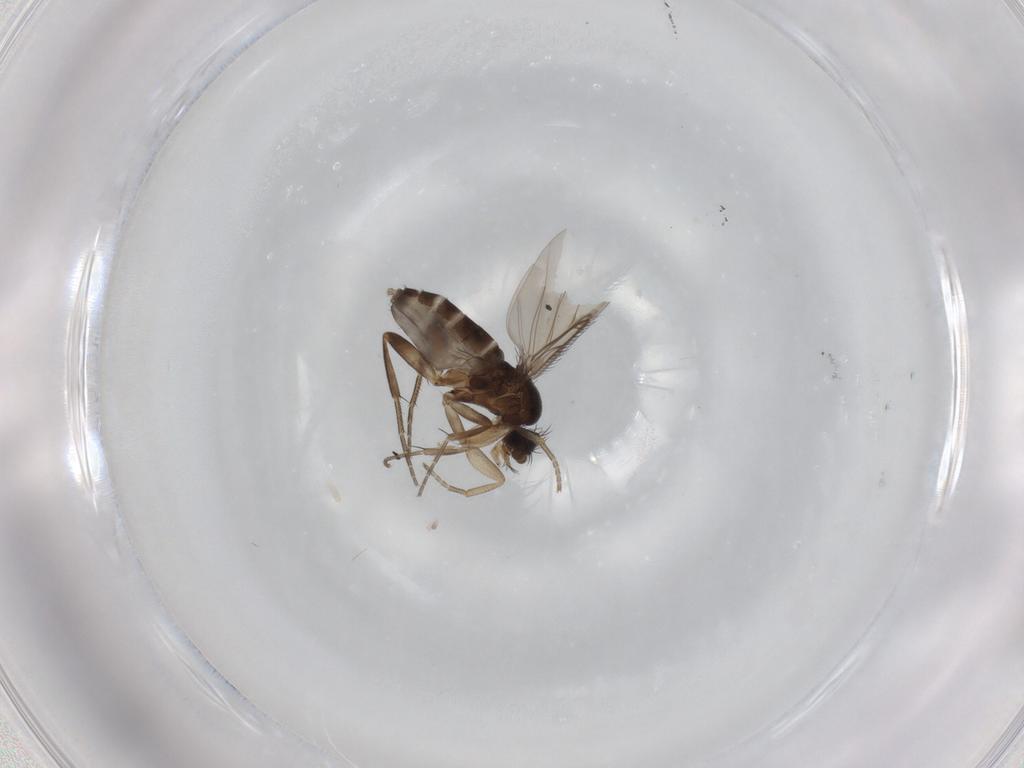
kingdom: Animalia
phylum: Arthropoda
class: Insecta
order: Diptera
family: Phoridae
